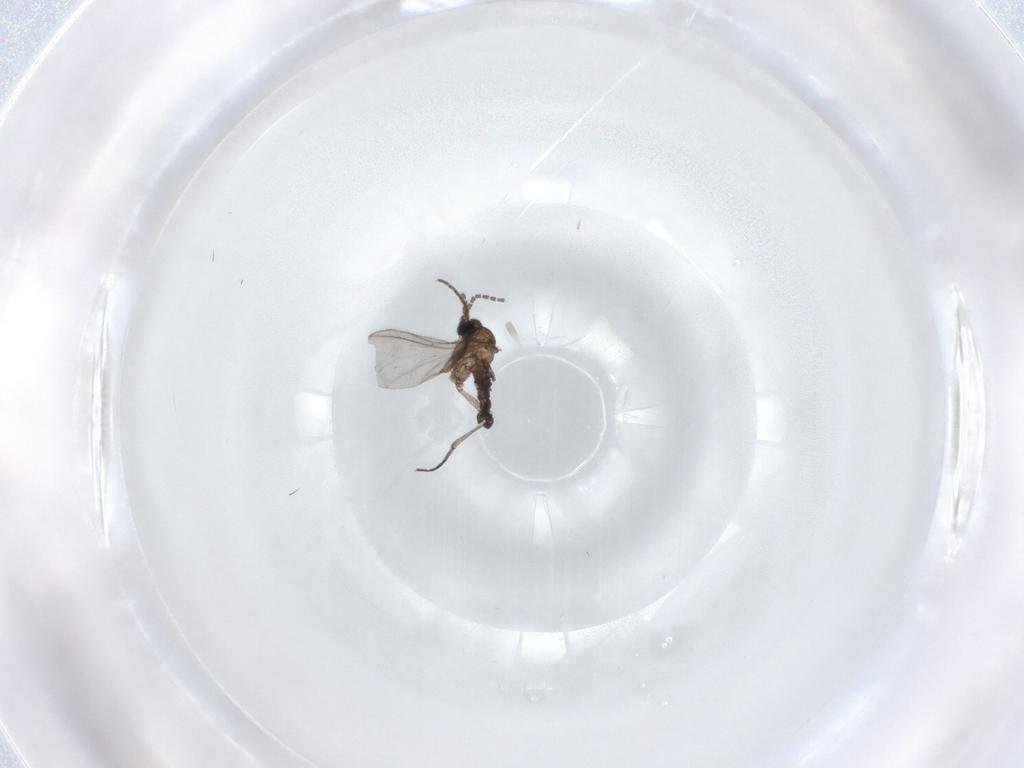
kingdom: Animalia
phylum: Arthropoda
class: Insecta
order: Diptera
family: Sciaridae
